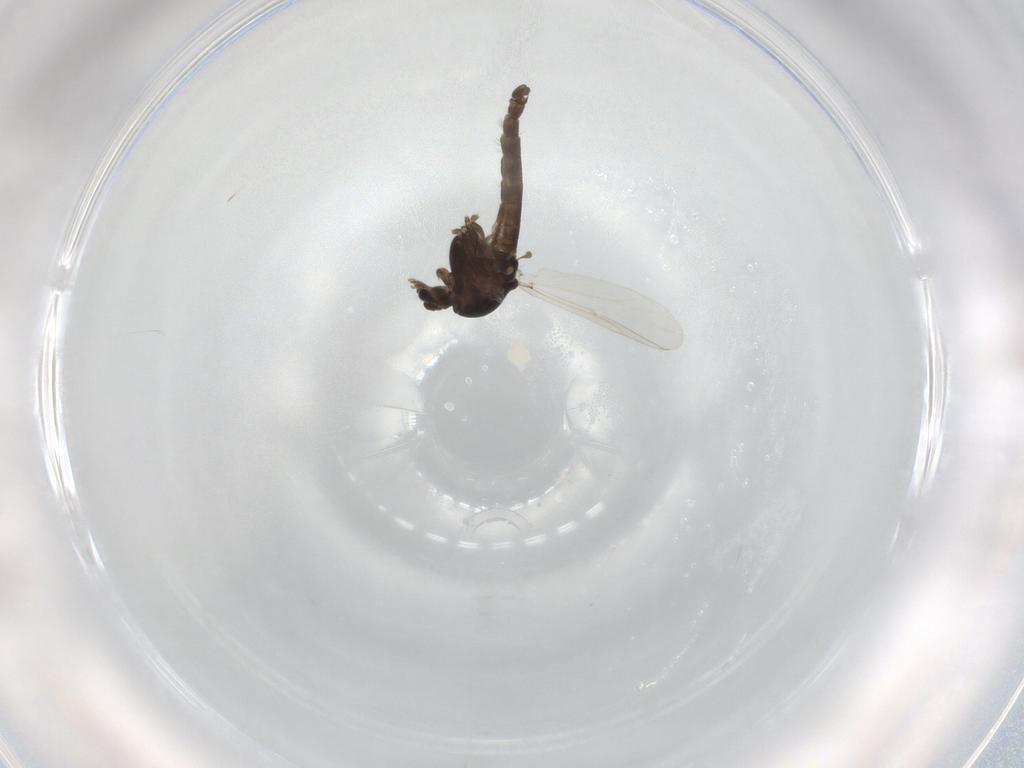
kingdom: Animalia
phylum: Arthropoda
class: Insecta
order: Diptera
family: Chironomidae
